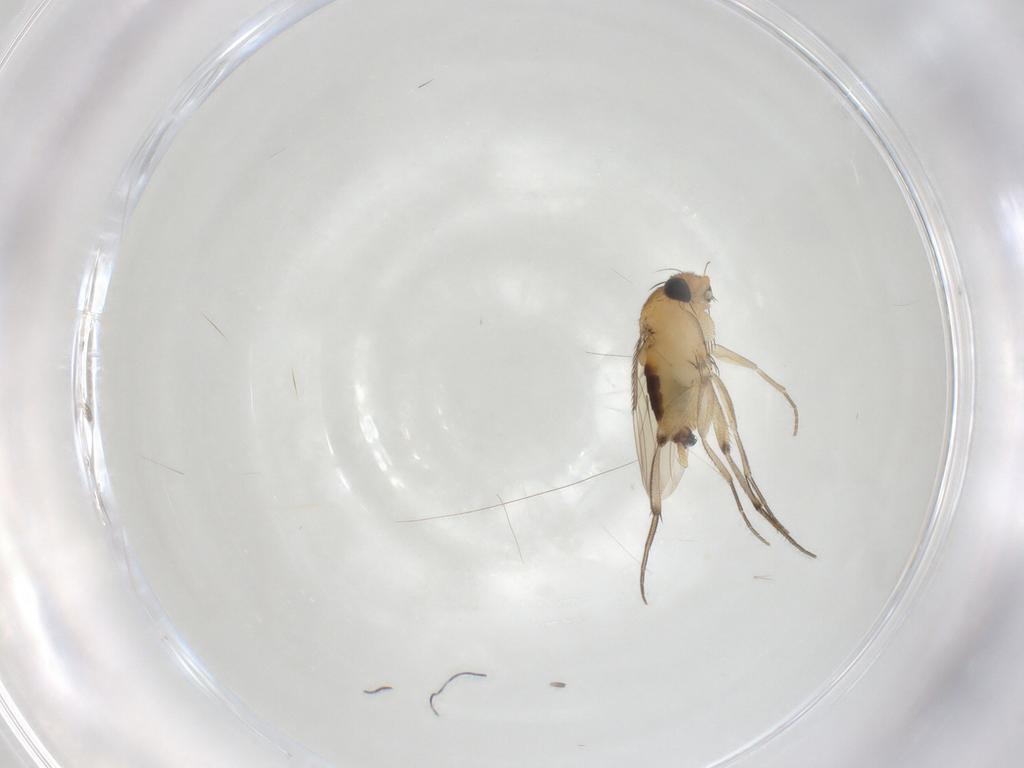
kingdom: Animalia
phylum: Arthropoda
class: Insecta
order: Diptera
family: Phoridae
